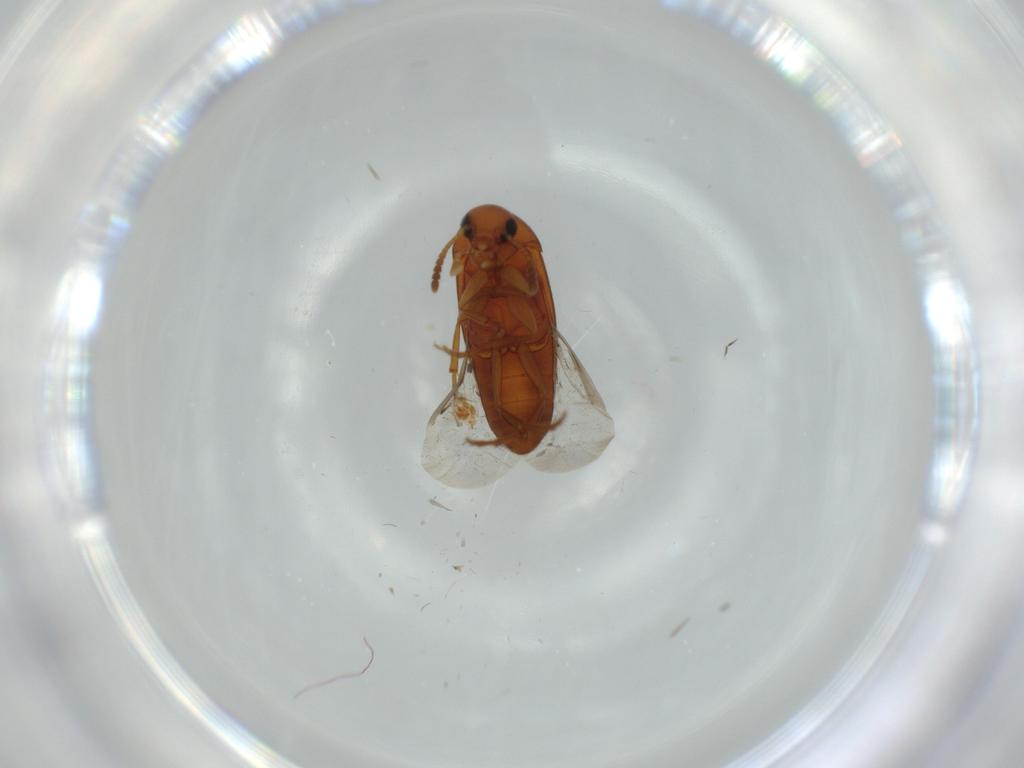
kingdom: Animalia
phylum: Arthropoda
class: Insecta
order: Coleoptera
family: Scraptiidae
